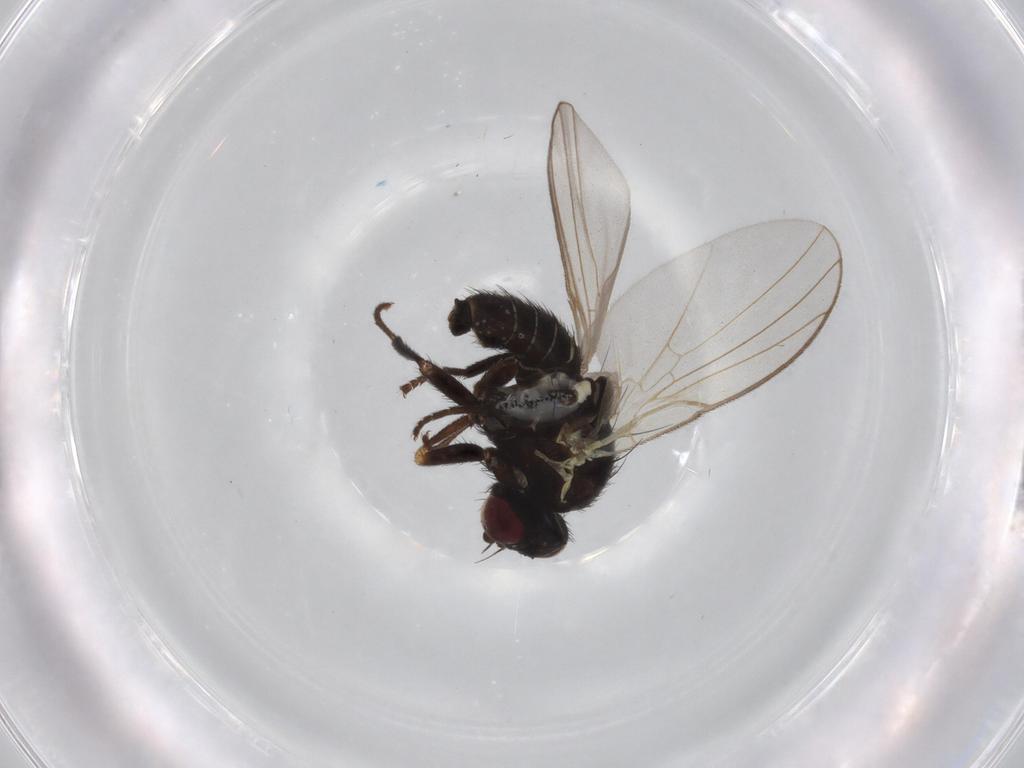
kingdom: Animalia
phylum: Arthropoda
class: Insecta
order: Diptera
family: Agromyzidae
